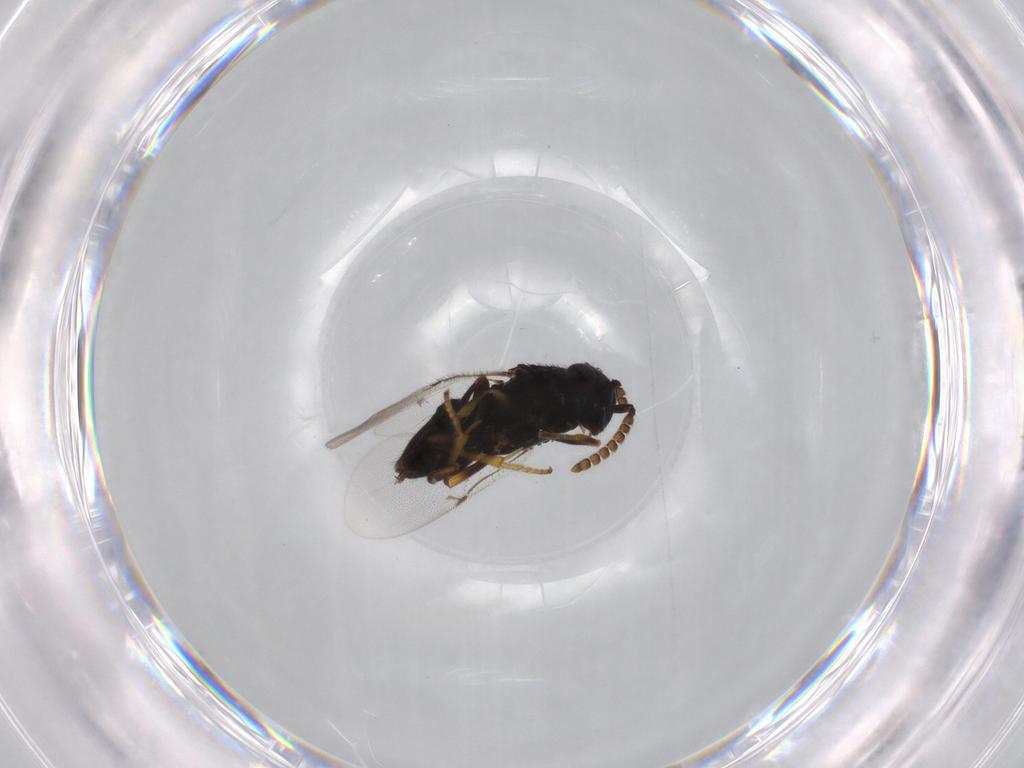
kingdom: Animalia
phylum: Arthropoda
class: Insecta
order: Hymenoptera
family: Encyrtidae
